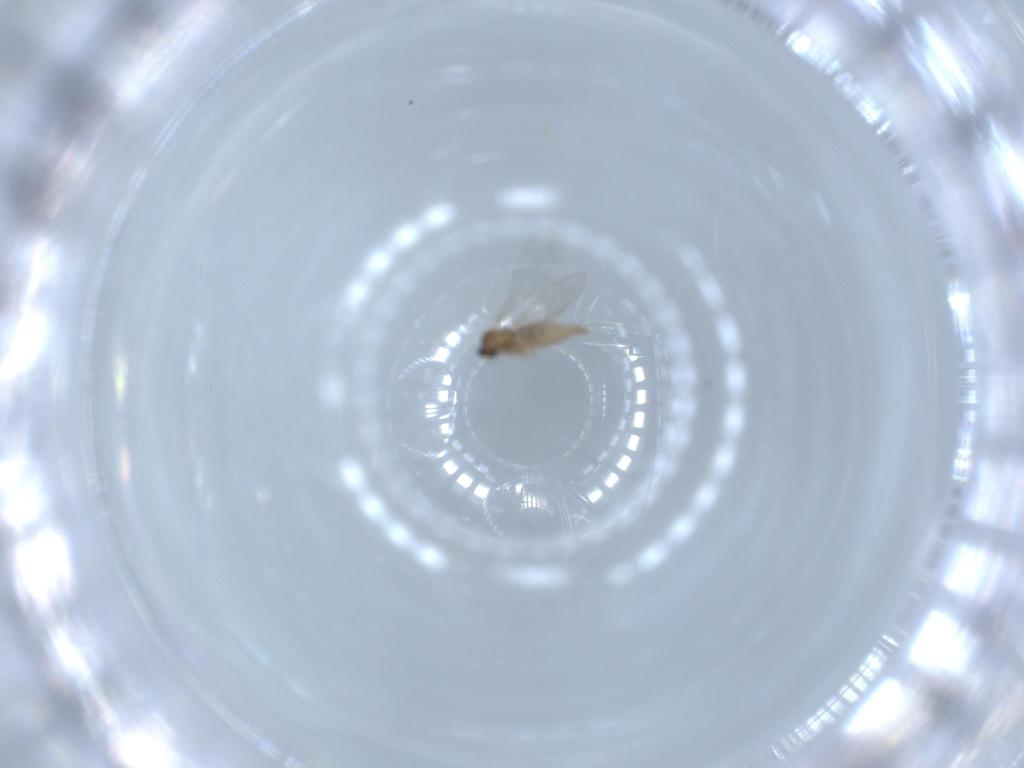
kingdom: Animalia
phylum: Arthropoda
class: Insecta
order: Diptera
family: Cecidomyiidae
